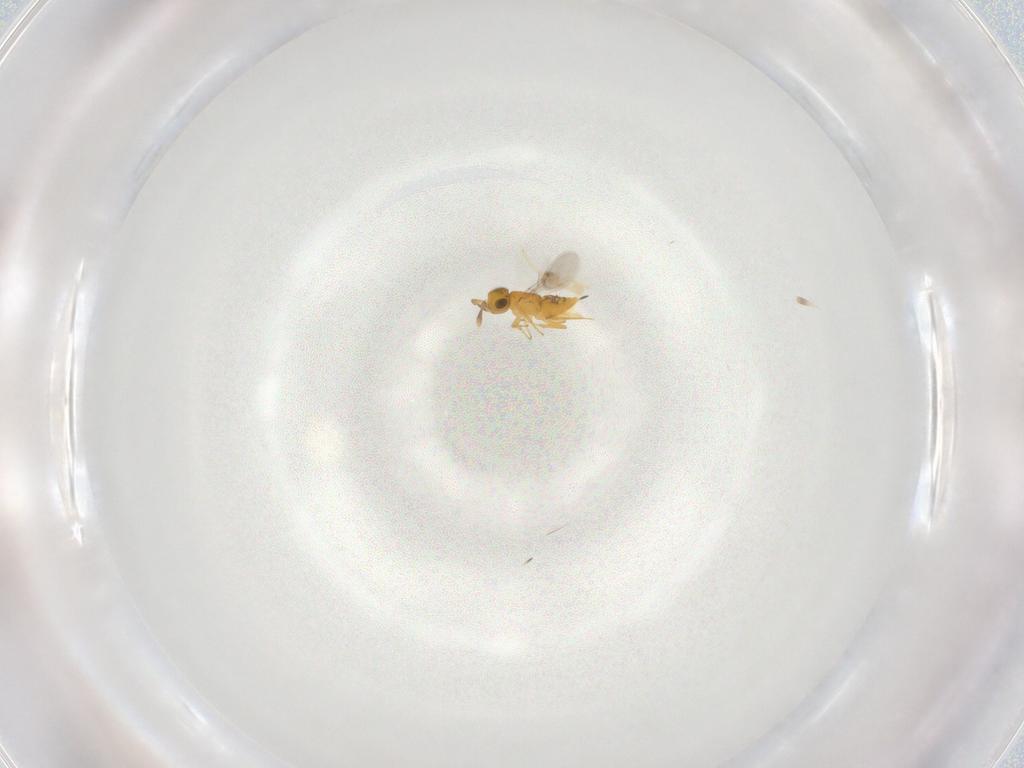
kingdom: Animalia
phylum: Arthropoda
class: Insecta
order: Hymenoptera
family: Encyrtidae
